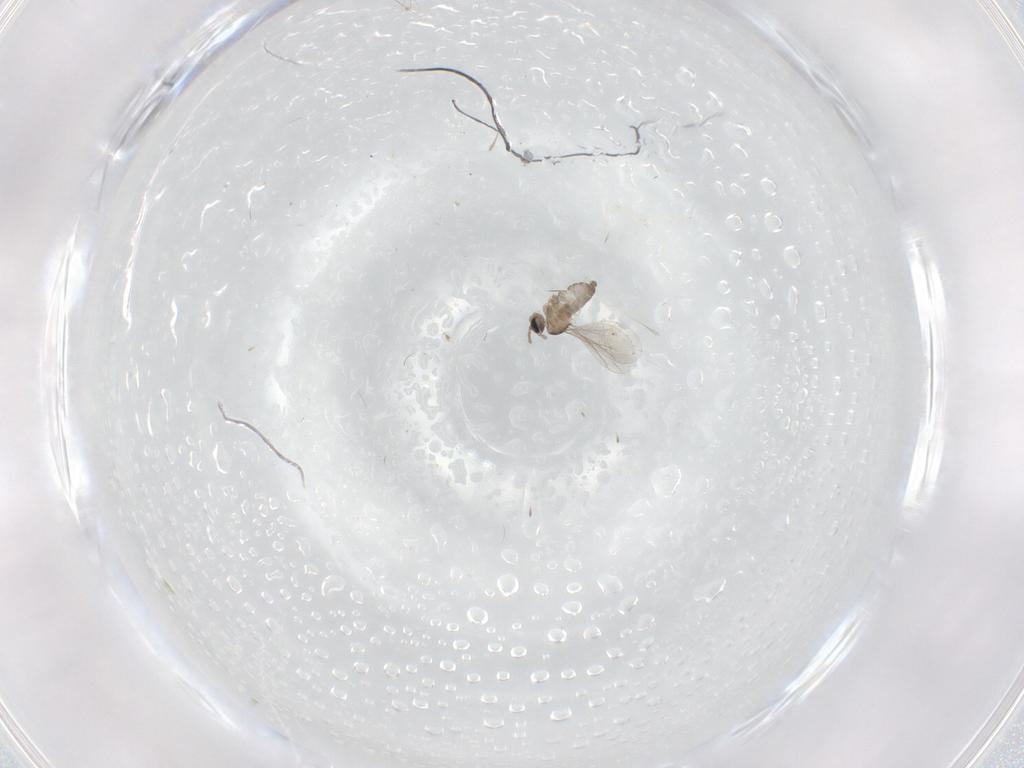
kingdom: Animalia
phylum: Arthropoda
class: Insecta
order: Diptera
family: Cecidomyiidae
